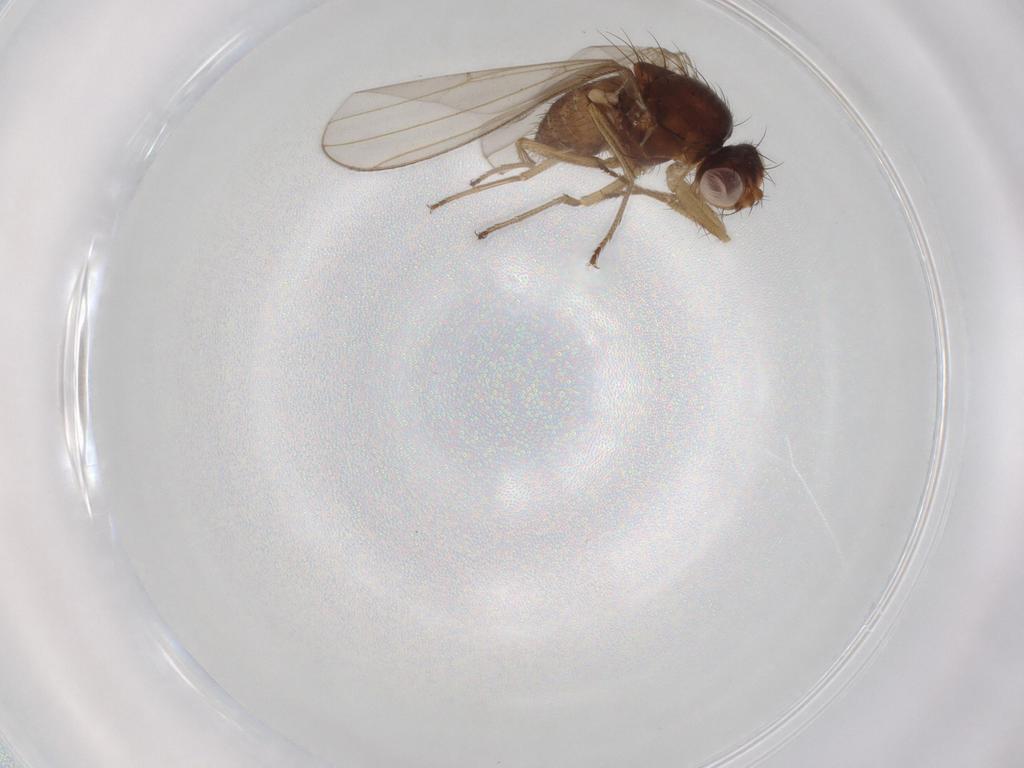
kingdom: Animalia
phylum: Arthropoda
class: Insecta
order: Diptera
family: Drosophilidae
